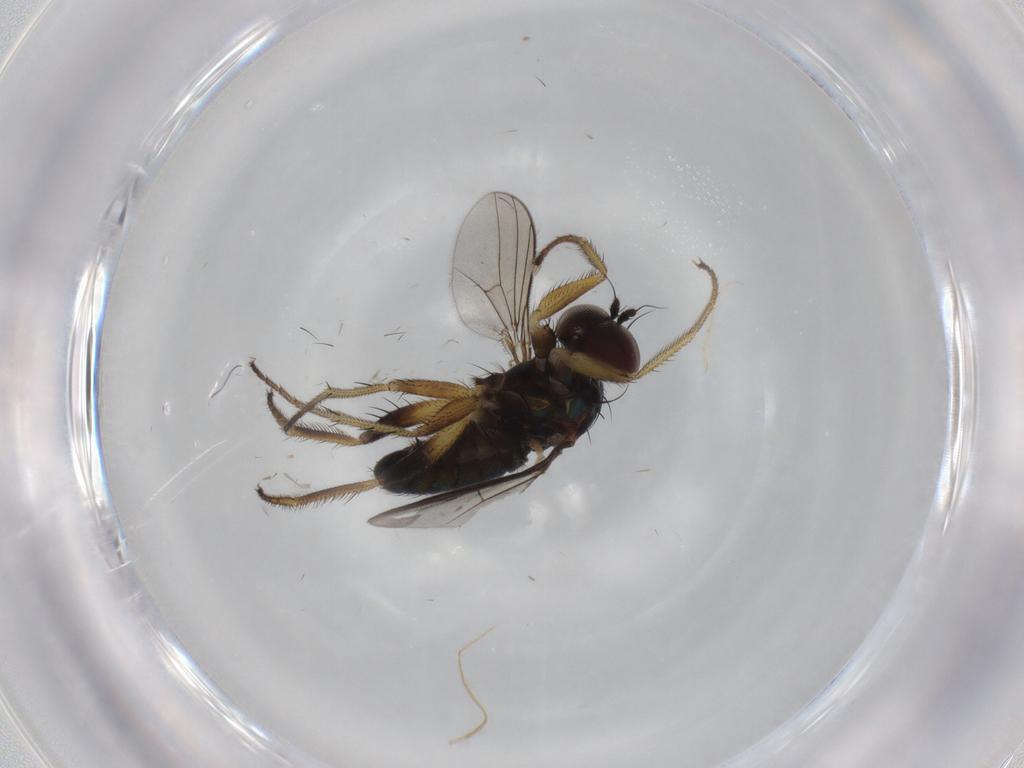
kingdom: Animalia
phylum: Arthropoda
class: Insecta
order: Diptera
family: Dolichopodidae
